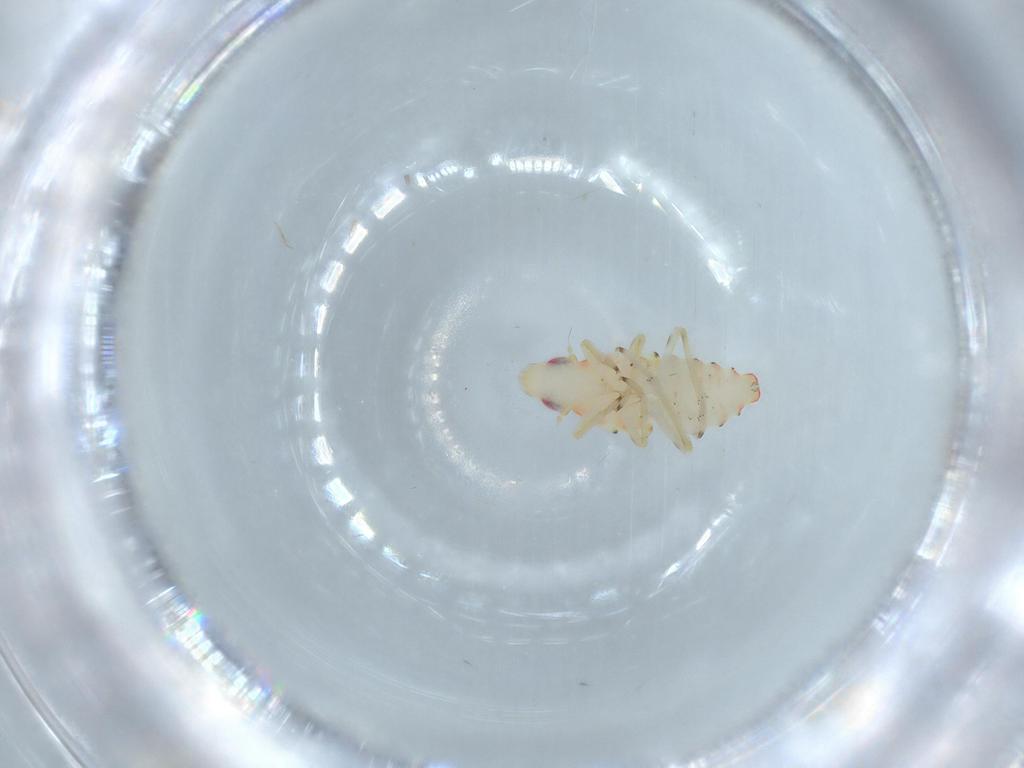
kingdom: Animalia
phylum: Arthropoda
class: Insecta
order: Hemiptera
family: Tropiduchidae
